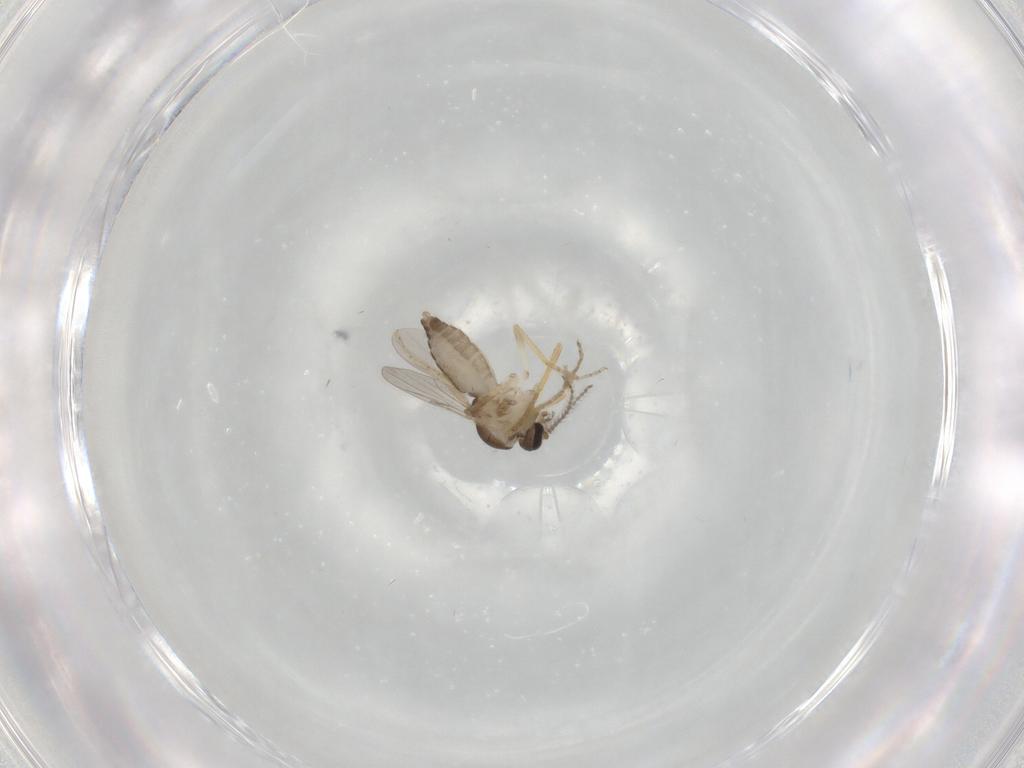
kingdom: Animalia
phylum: Arthropoda
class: Insecta
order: Diptera
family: Ceratopogonidae
